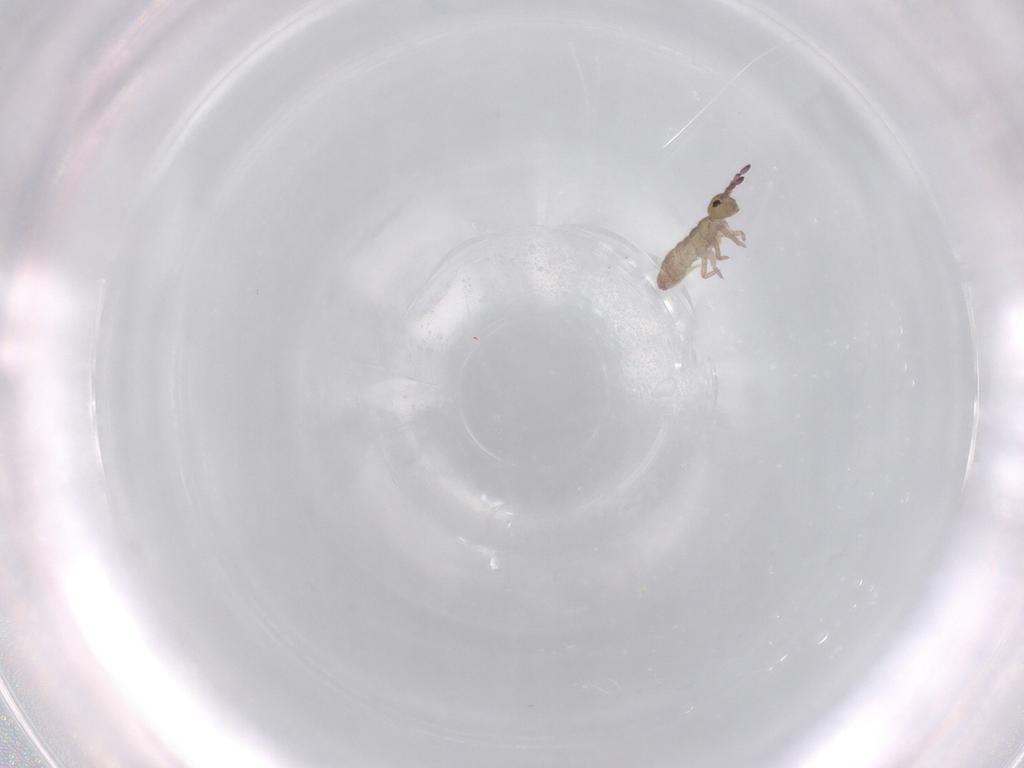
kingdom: Animalia
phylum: Arthropoda
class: Collembola
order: Entomobryomorpha
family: Isotomidae
